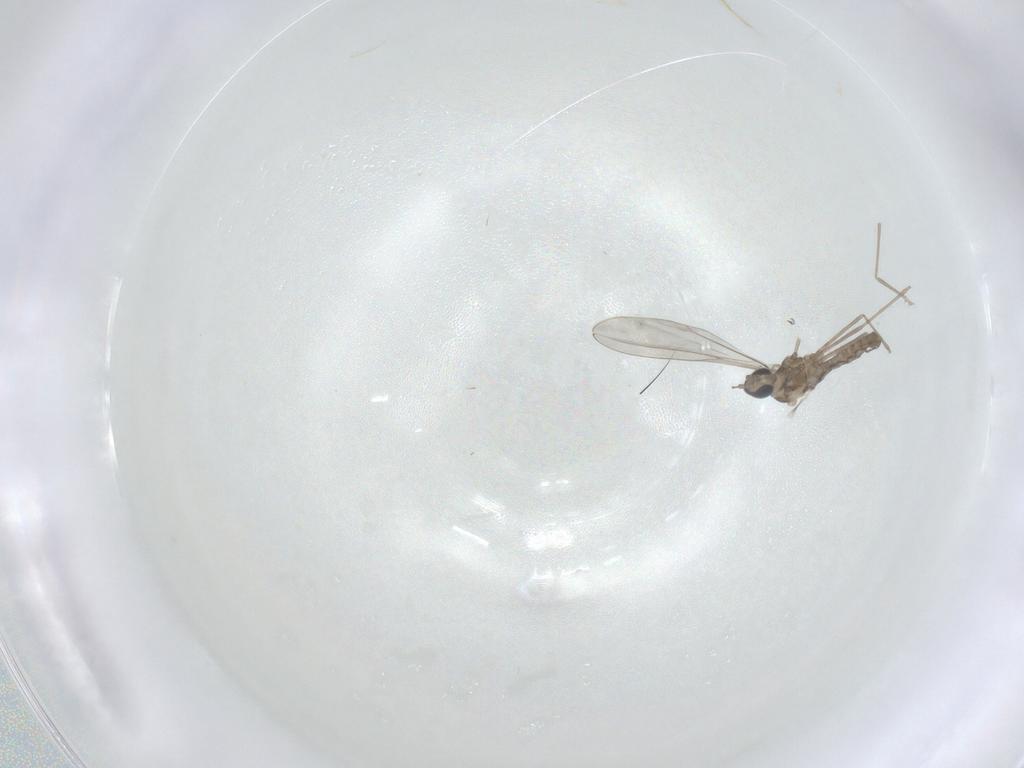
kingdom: Animalia
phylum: Arthropoda
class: Insecta
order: Diptera
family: Cecidomyiidae
